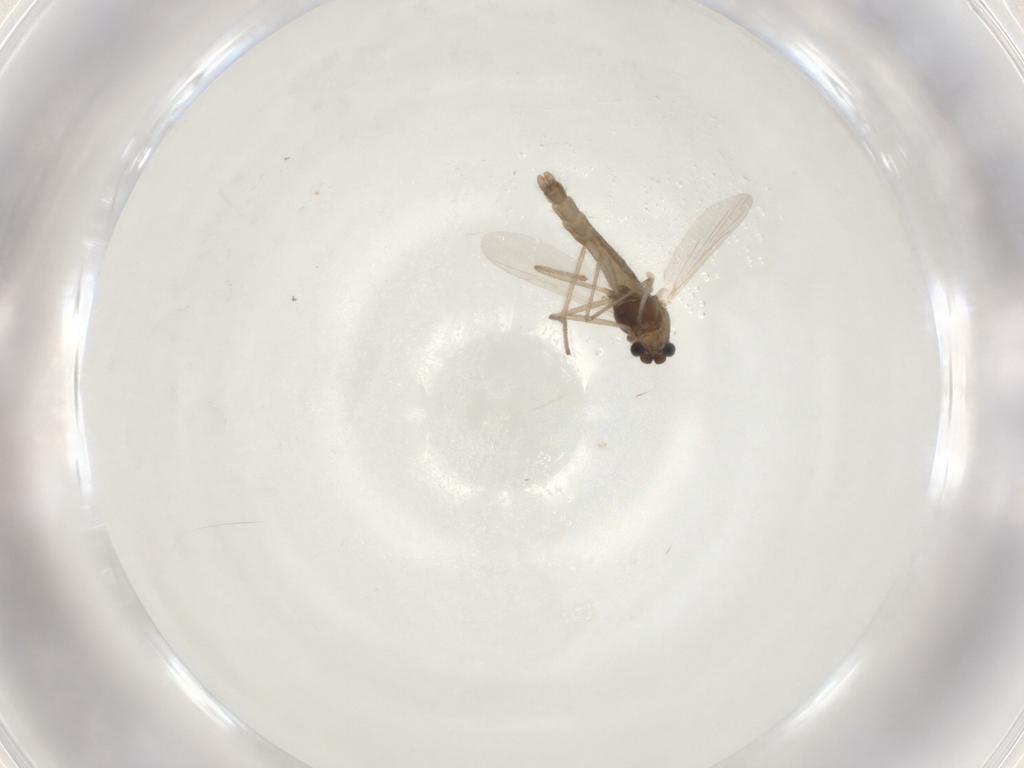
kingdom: Animalia
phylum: Arthropoda
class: Insecta
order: Diptera
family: Chironomidae
